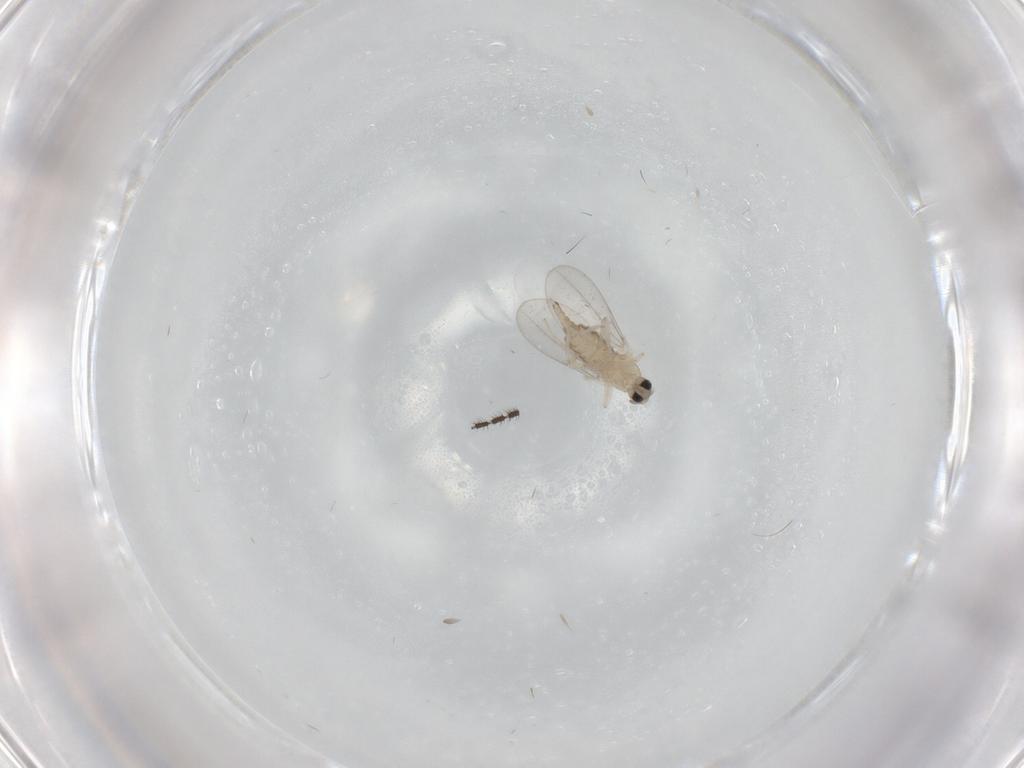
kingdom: Animalia
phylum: Arthropoda
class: Insecta
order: Diptera
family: Cecidomyiidae
